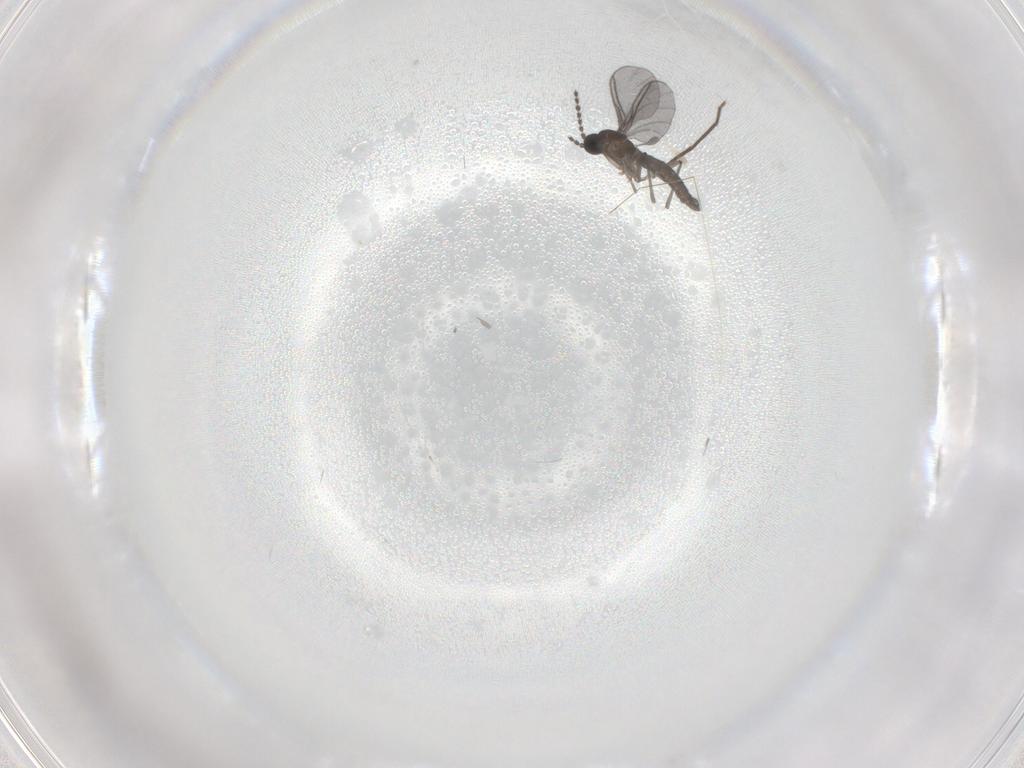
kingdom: Animalia
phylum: Arthropoda
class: Insecta
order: Diptera
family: Sciaridae
